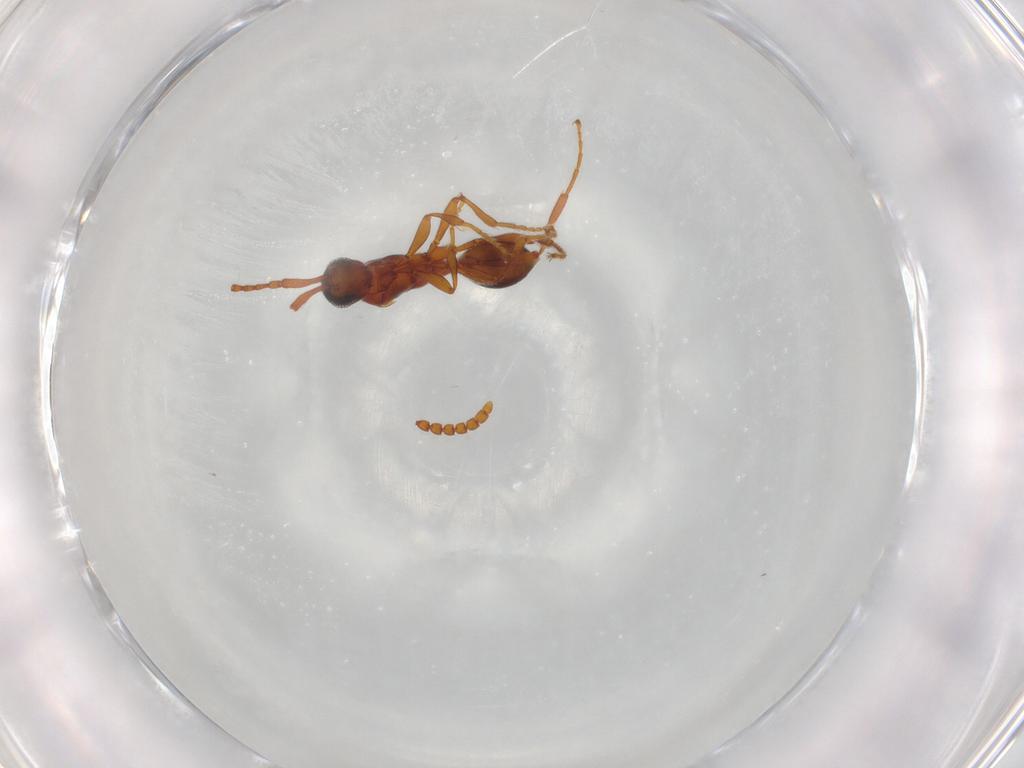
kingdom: Animalia
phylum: Arthropoda
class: Insecta
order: Hymenoptera
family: Diapriidae
